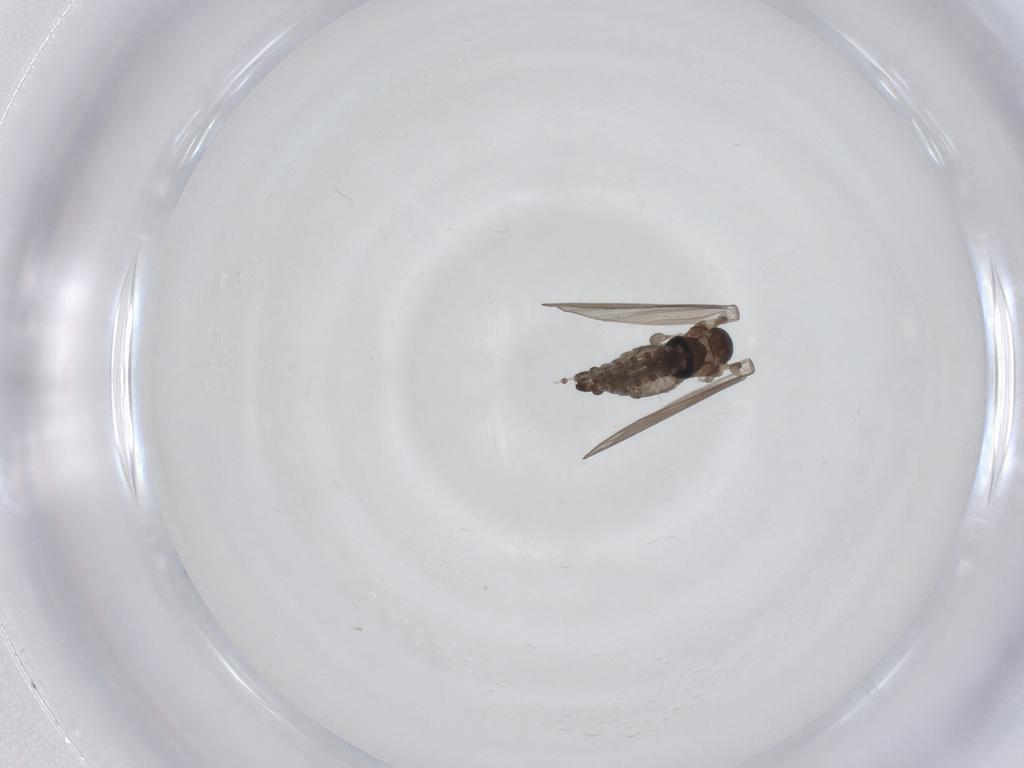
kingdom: Animalia
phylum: Arthropoda
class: Insecta
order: Diptera
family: Psychodidae
